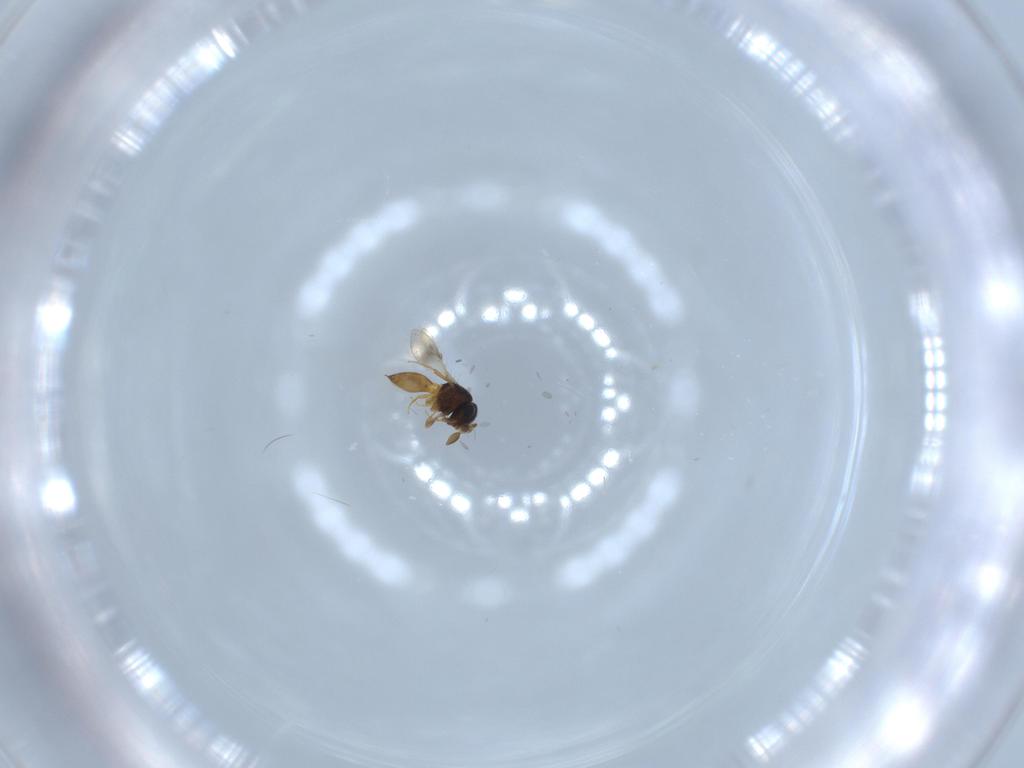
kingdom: Animalia
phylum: Arthropoda
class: Insecta
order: Hymenoptera
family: Scelionidae
